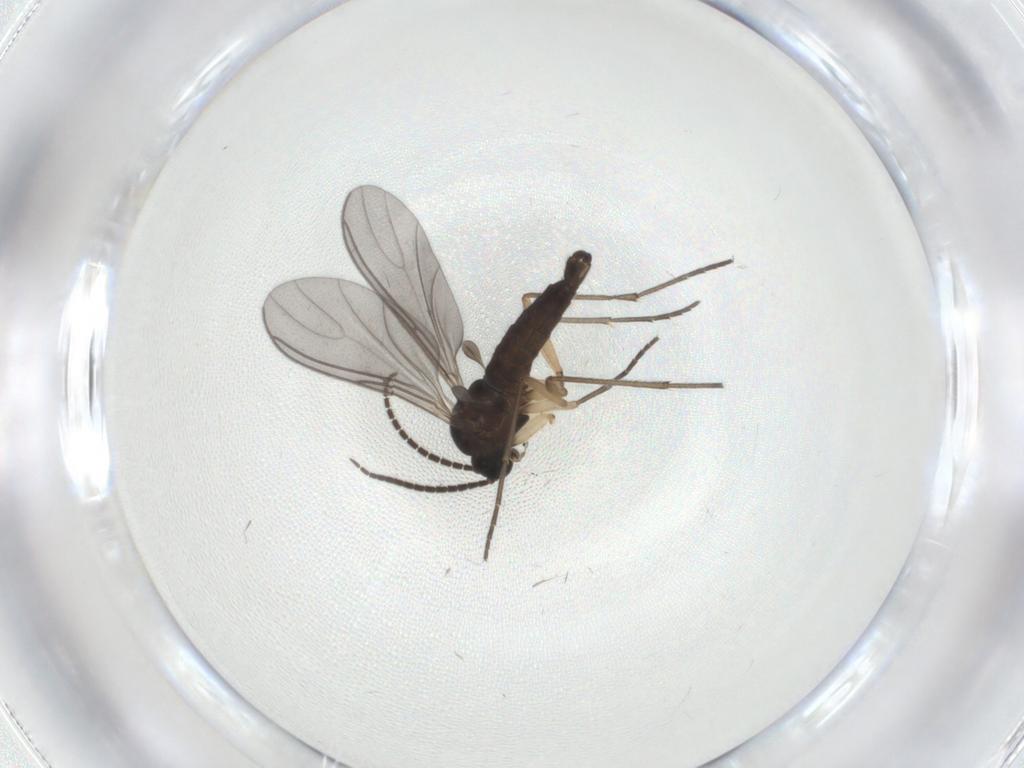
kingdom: Animalia
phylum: Arthropoda
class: Insecta
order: Diptera
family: Sciaridae
